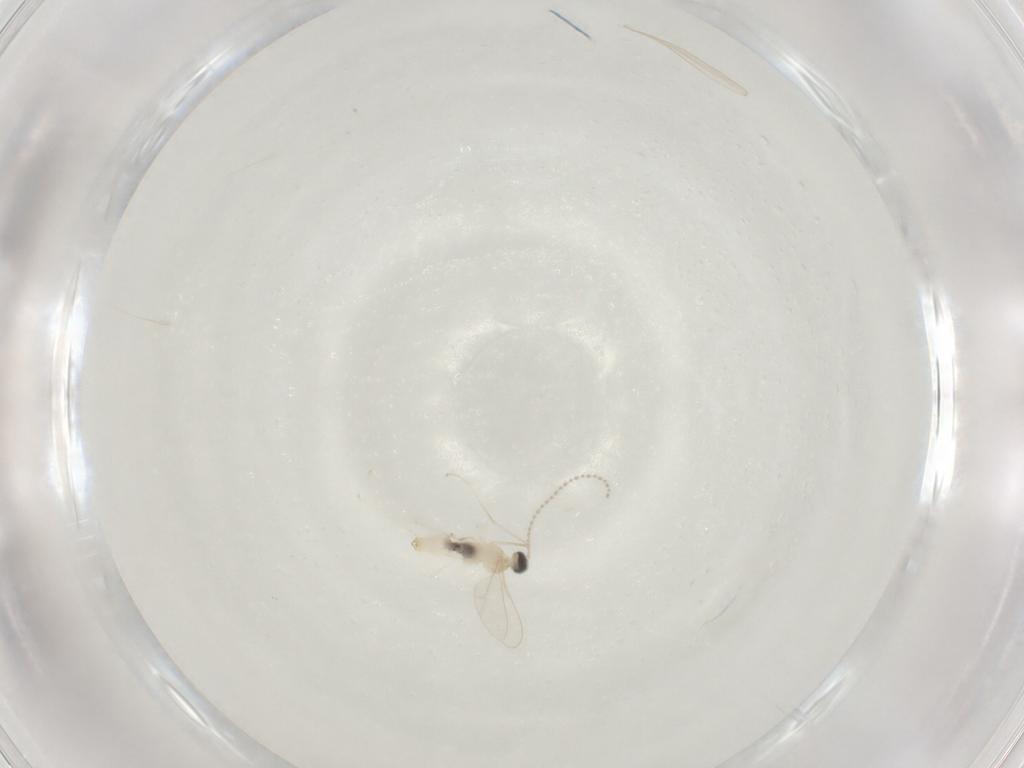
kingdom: Animalia
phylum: Arthropoda
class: Insecta
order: Diptera
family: Cecidomyiidae
